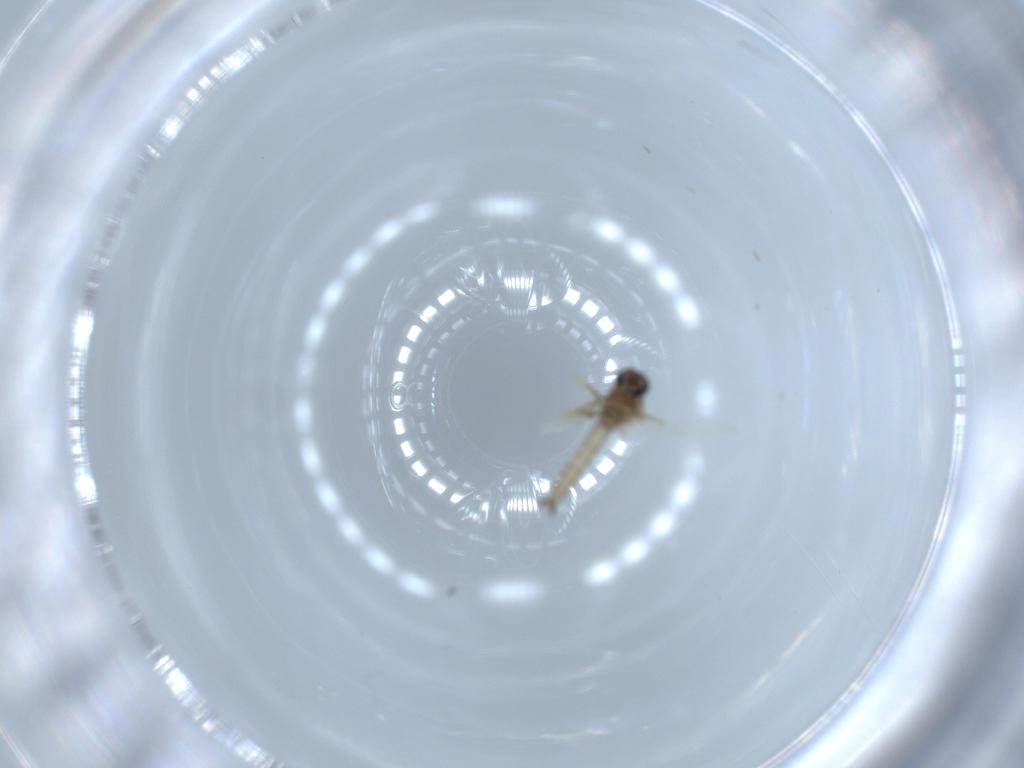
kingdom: Animalia
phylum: Arthropoda
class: Insecta
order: Diptera
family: Ceratopogonidae
